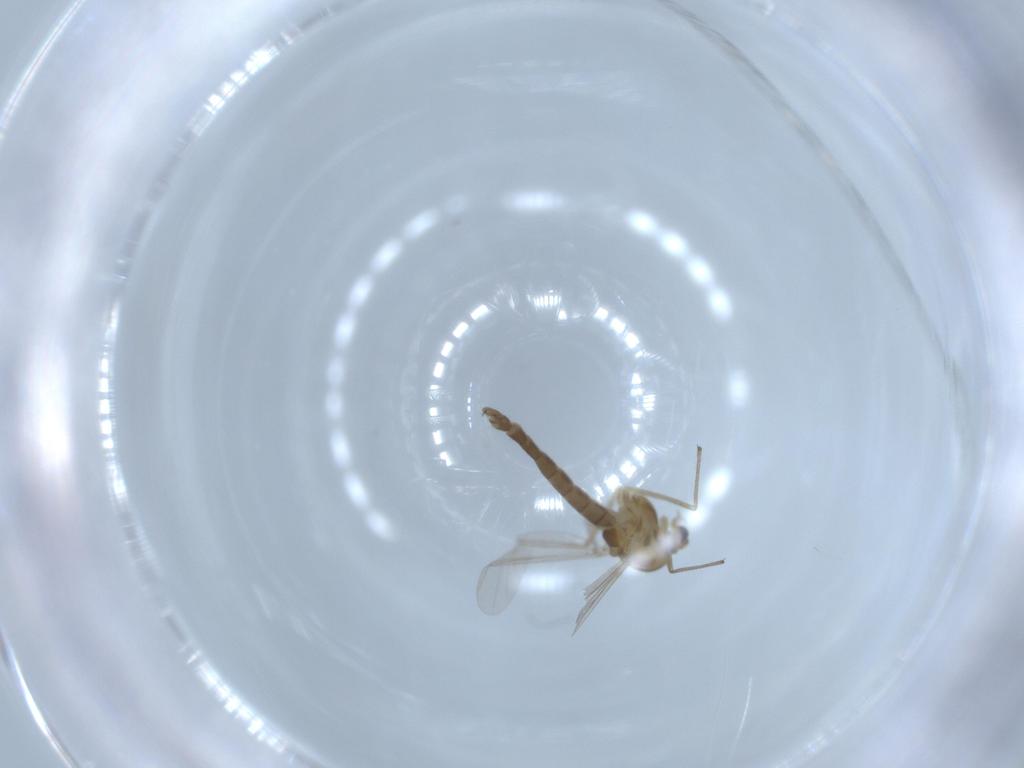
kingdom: Animalia
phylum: Arthropoda
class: Insecta
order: Diptera
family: Chironomidae
